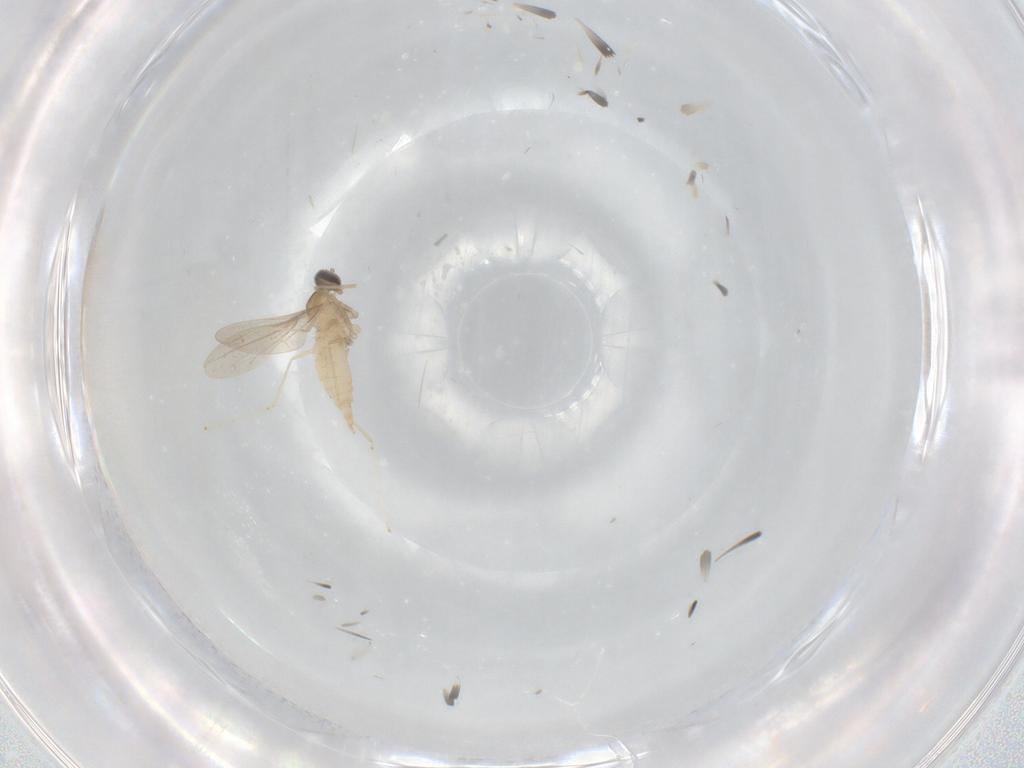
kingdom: Animalia
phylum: Arthropoda
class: Insecta
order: Diptera
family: Cecidomyiidae
